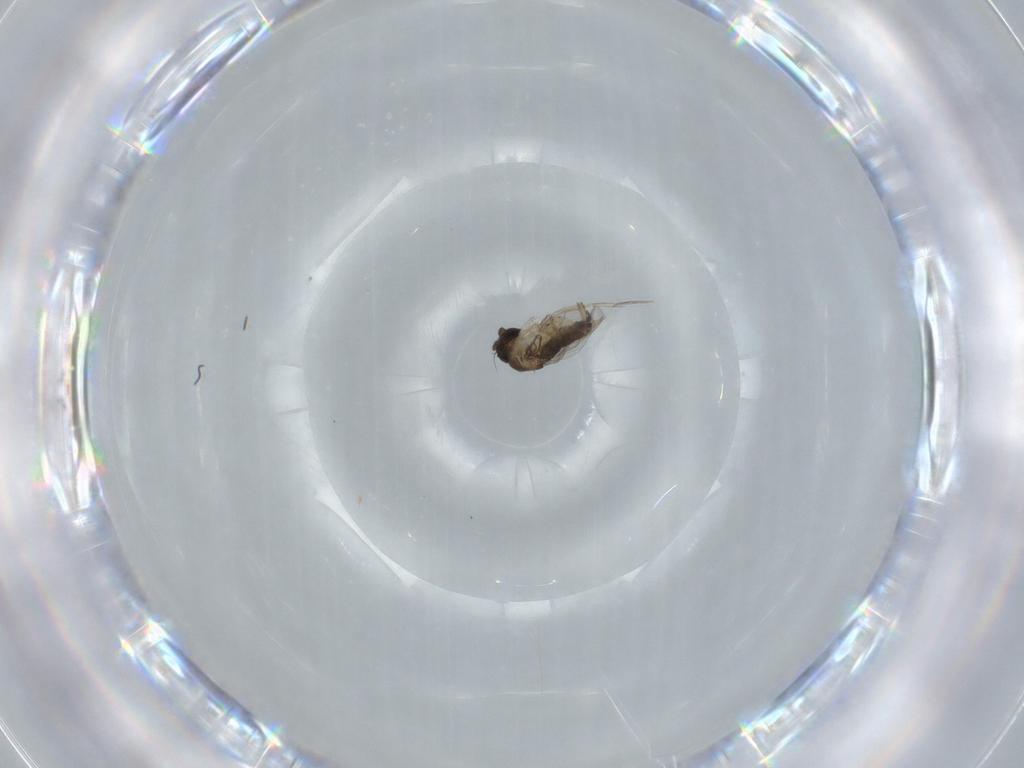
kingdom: Animalia
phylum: Arthropoda
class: Insecta
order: Diptera
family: Phoridae
